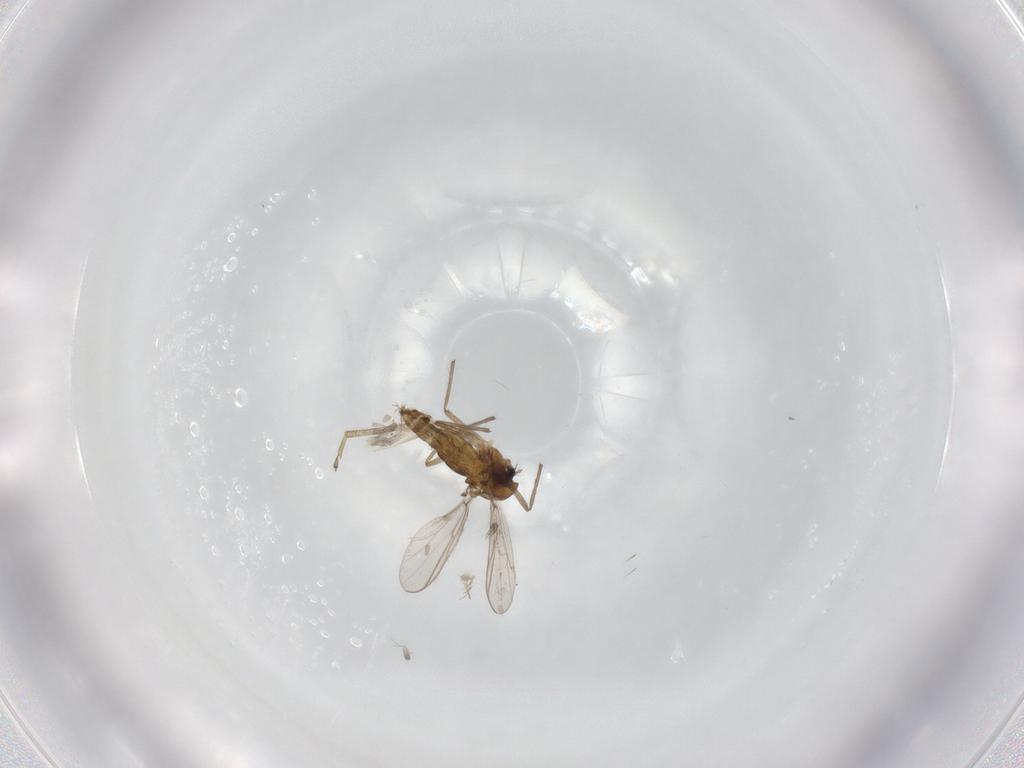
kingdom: Animalia
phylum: Arthropoda
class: Insecta
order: Diptera
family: Chironomidae
